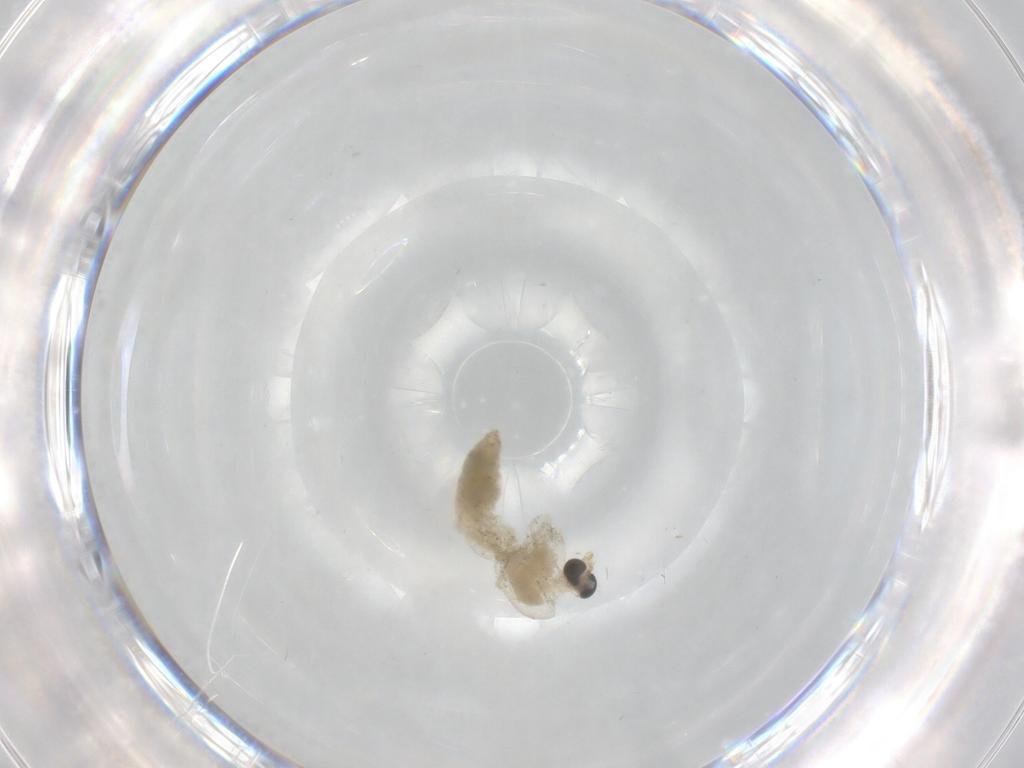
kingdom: Animalia
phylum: Arthropoda
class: Insecta
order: Diptera
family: Chironomidae
